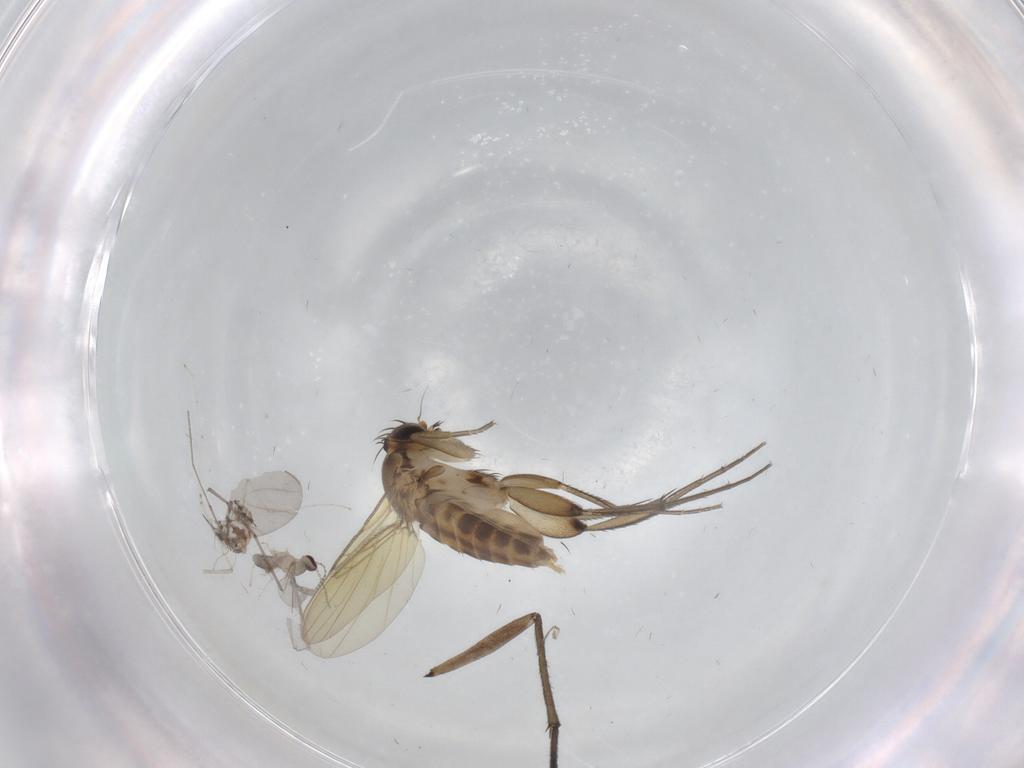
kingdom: Animalia
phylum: Arthropoda
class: Insecta
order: Diptera
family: Phoridae
